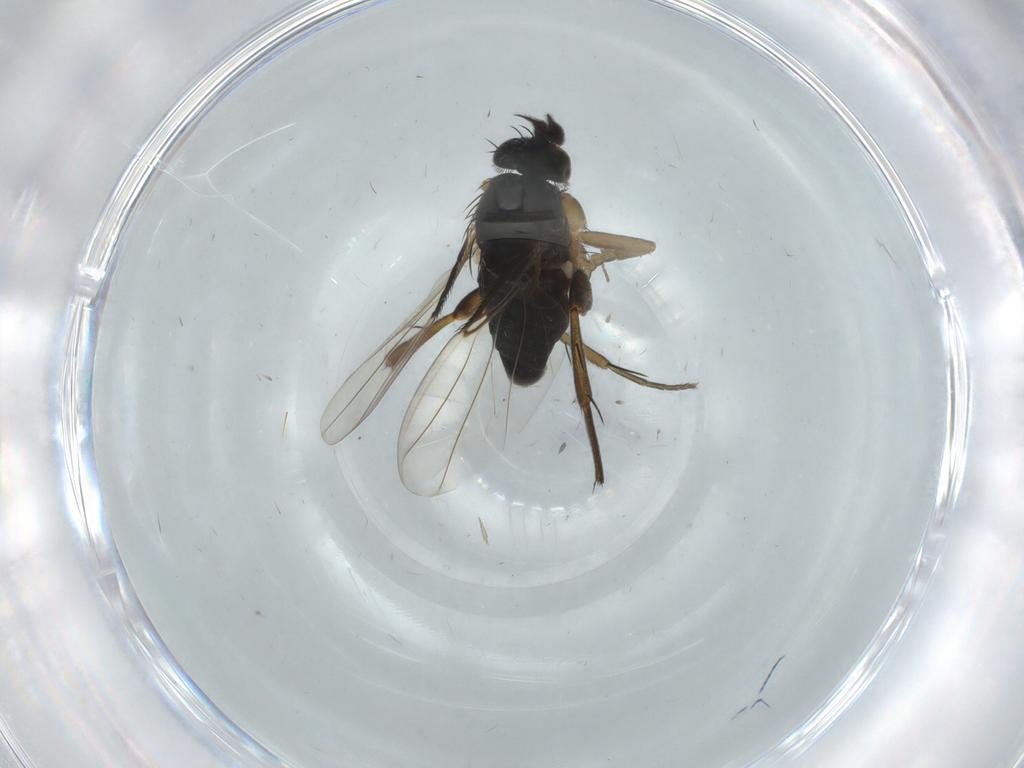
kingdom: Animalia
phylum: Arthropoda
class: Insecta
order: Diptera
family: Phoridae
